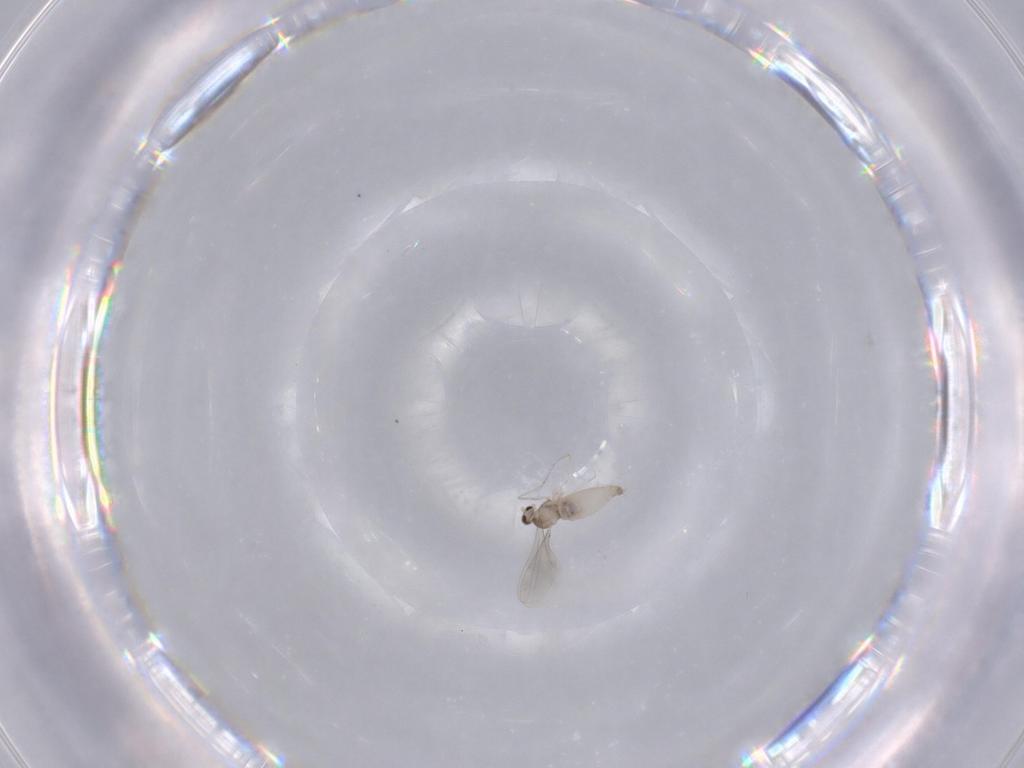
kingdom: Animalia
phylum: Arthropoda
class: Insecta
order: Diptera
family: Cecidomyiidae
